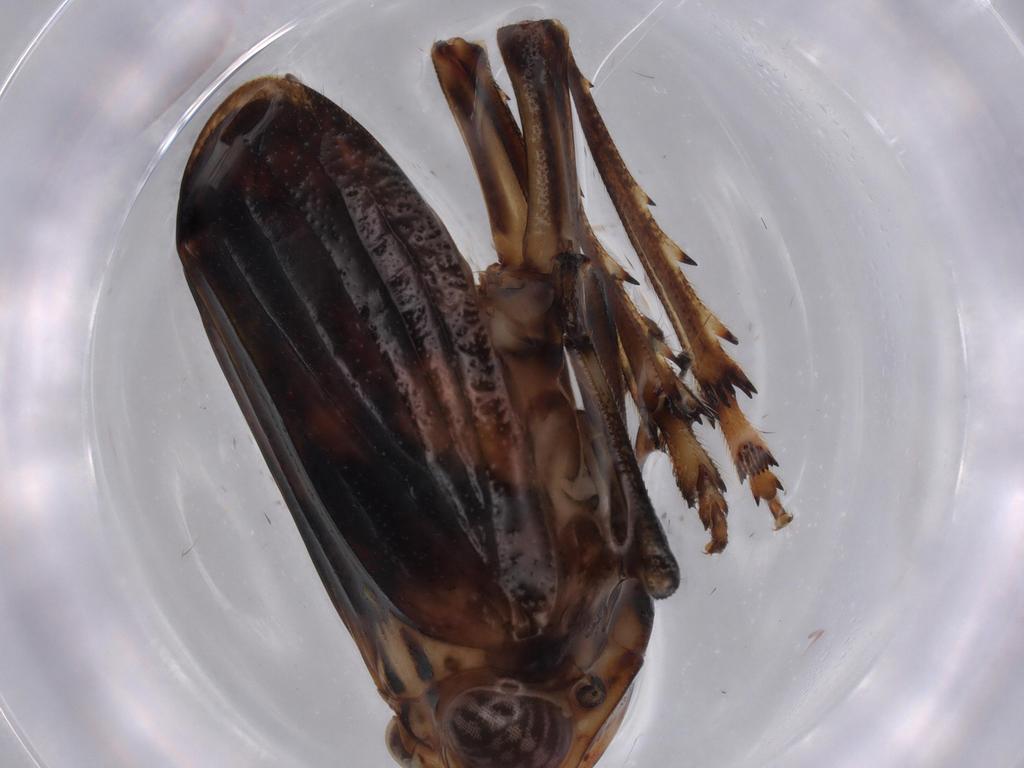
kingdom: Animalia
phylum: Arthropoda
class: Insecta
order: Hemiptera
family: Issidae
